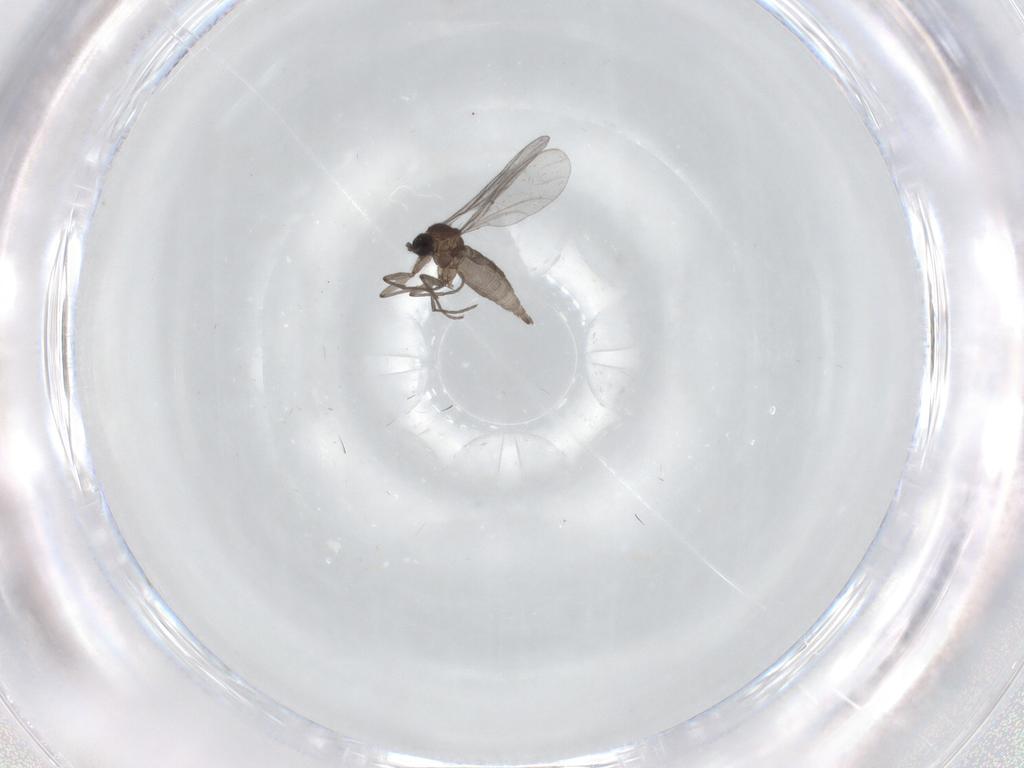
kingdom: Animalia
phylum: Arthropoda
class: Insecta
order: Diptera
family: Sciaridae
